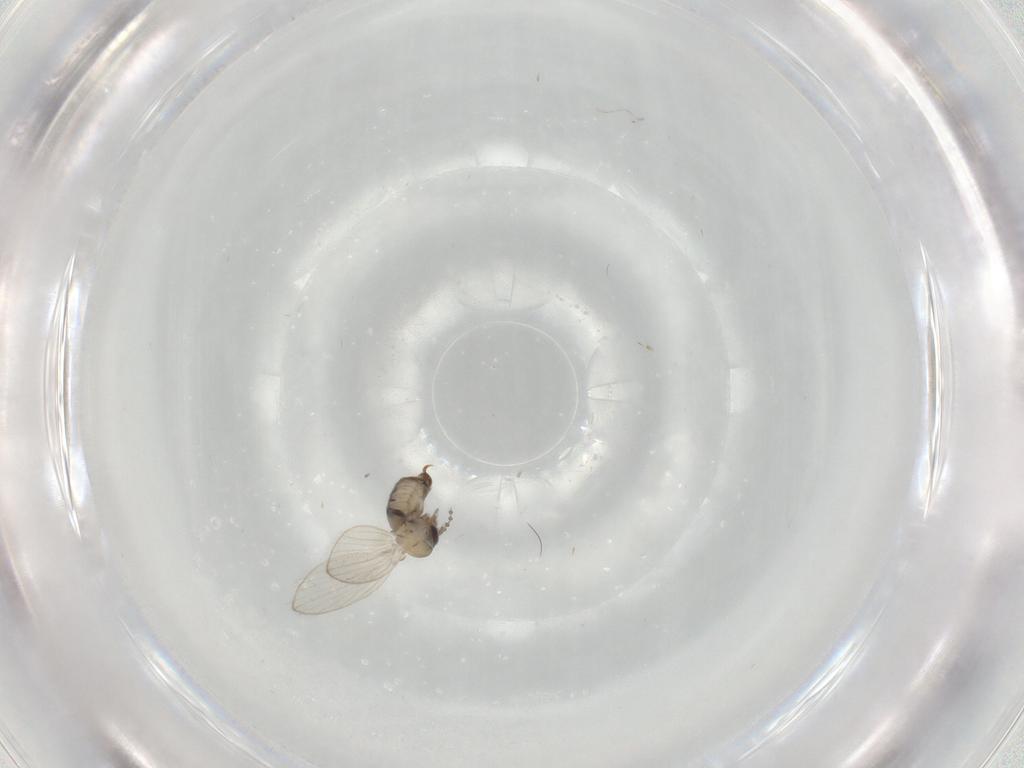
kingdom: Animalia
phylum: Arthropoda
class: Insecta
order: Diptera
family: Psychodidae
